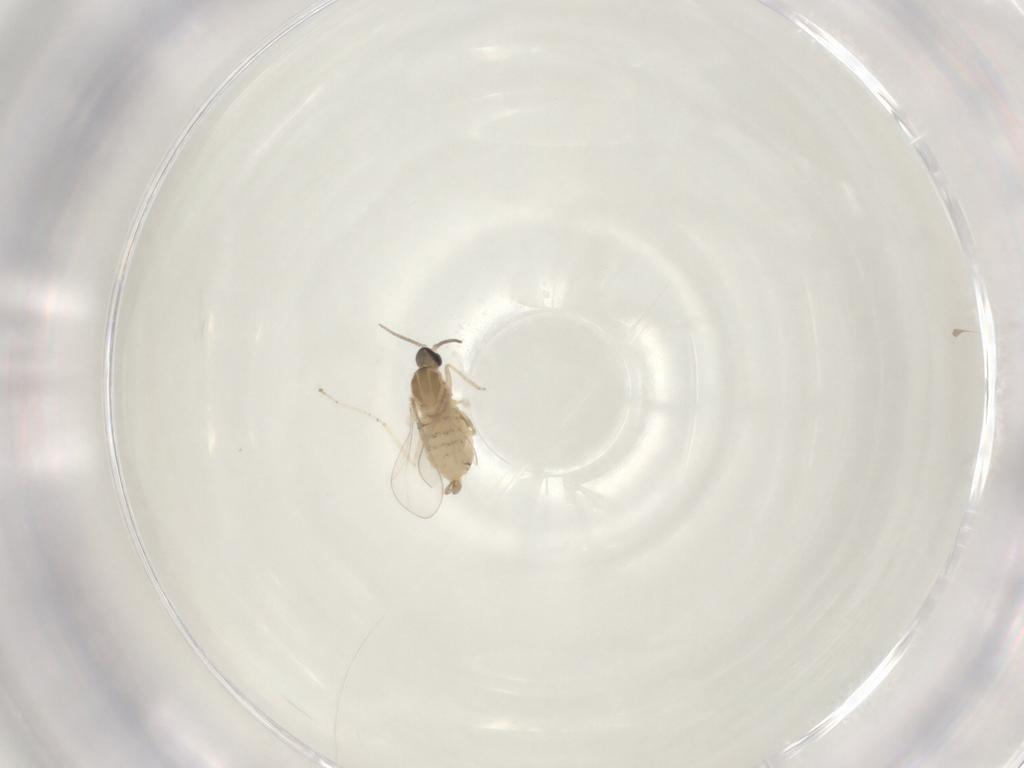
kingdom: Animalia
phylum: Arthropoda
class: Insecta
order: Diptera
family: Cecidomyiidae
